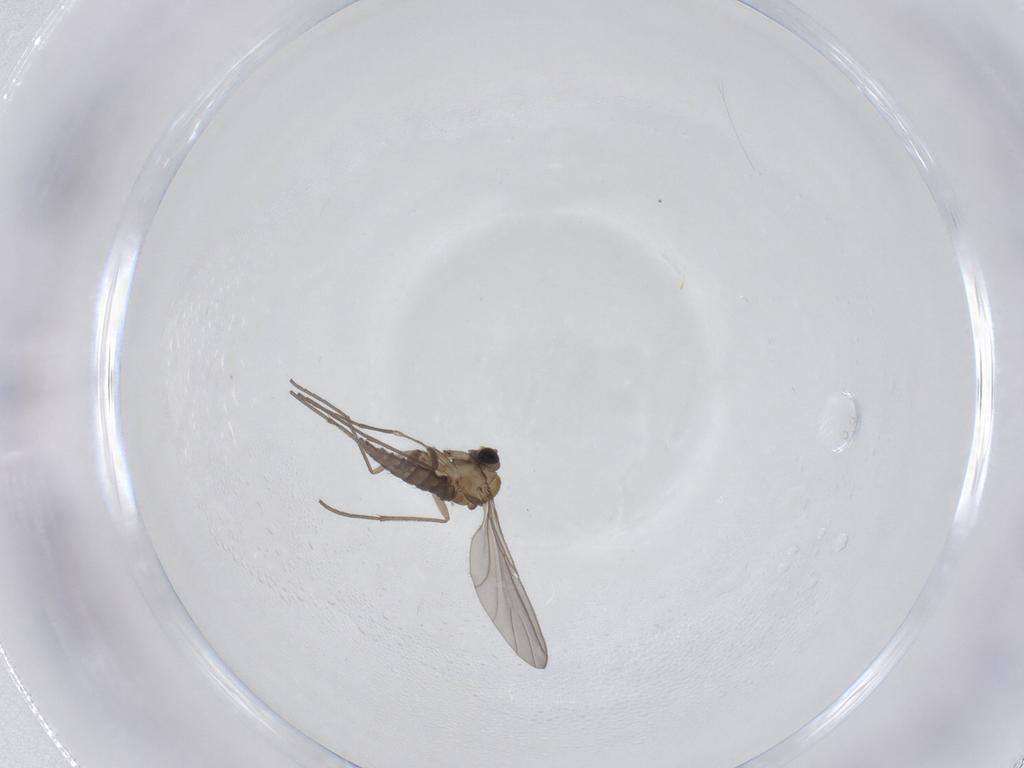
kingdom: Animalia
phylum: Arthropoda
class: Insecta
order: Diptera
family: Sciaridae
